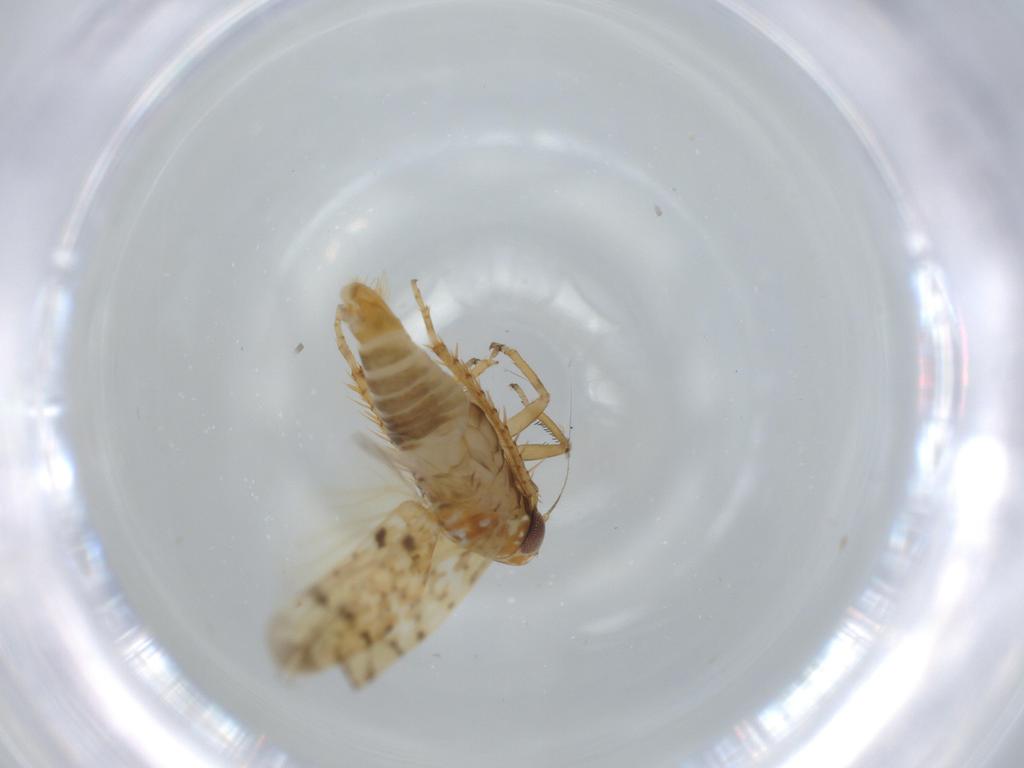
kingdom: Animalia
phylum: Arthropoda
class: Insecta
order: Hemiptera
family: Cicadellidae
